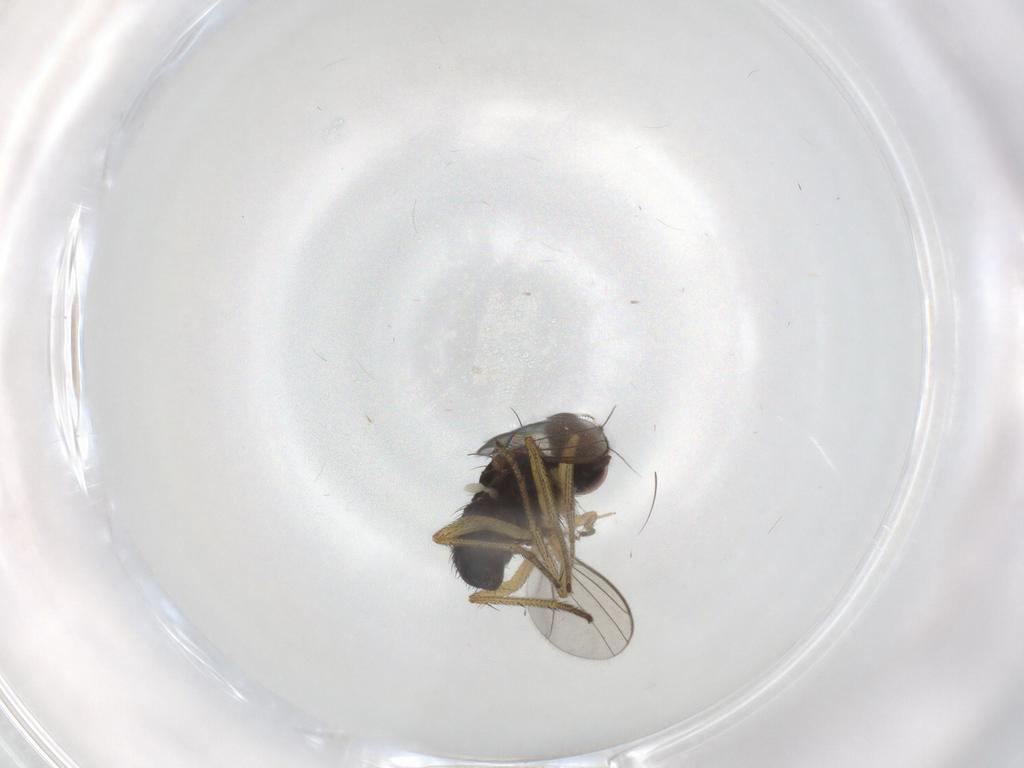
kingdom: Animalia
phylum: Arthropoda
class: Insecta
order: Diptera
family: Chironomidae
